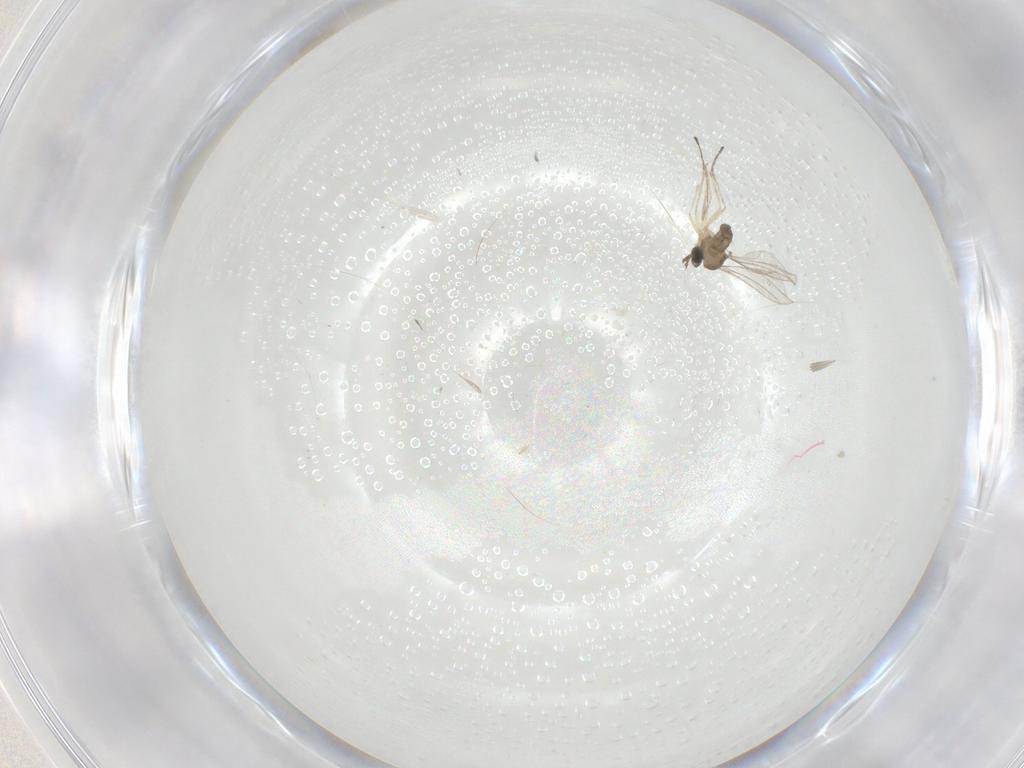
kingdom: Animalia
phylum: Arthropoda
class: Insecta
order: Diptera
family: Cecidomyiidae
